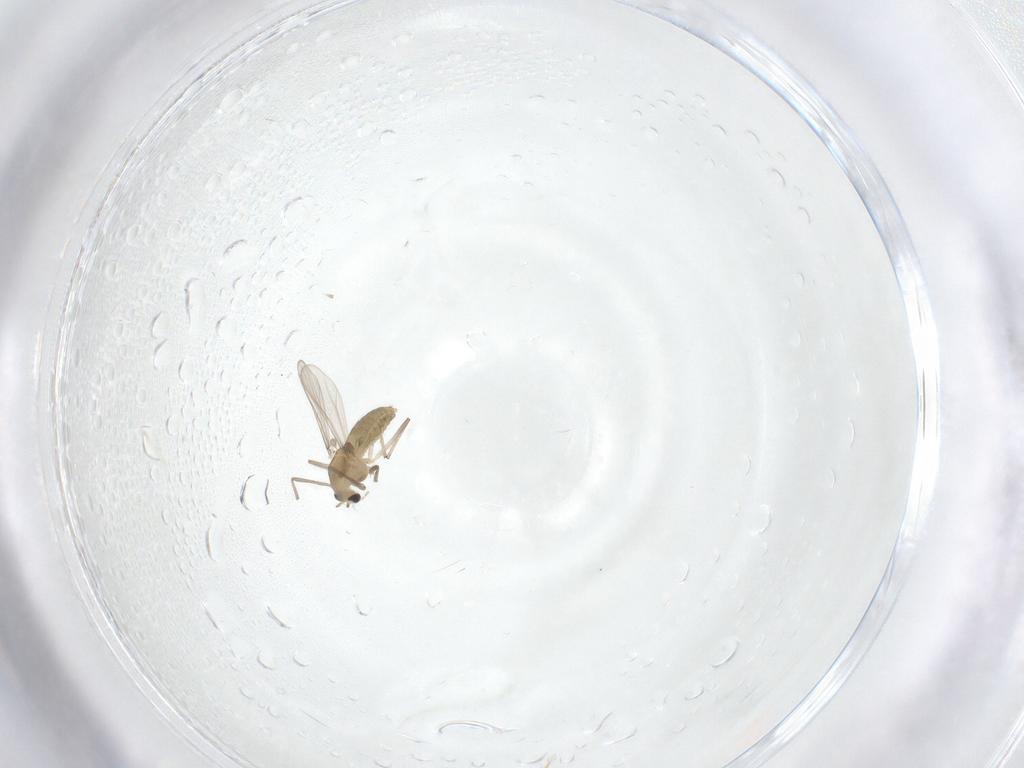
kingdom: Animalia
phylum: Arthropoda
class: Insecta
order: Diptera
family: Chironomidae
